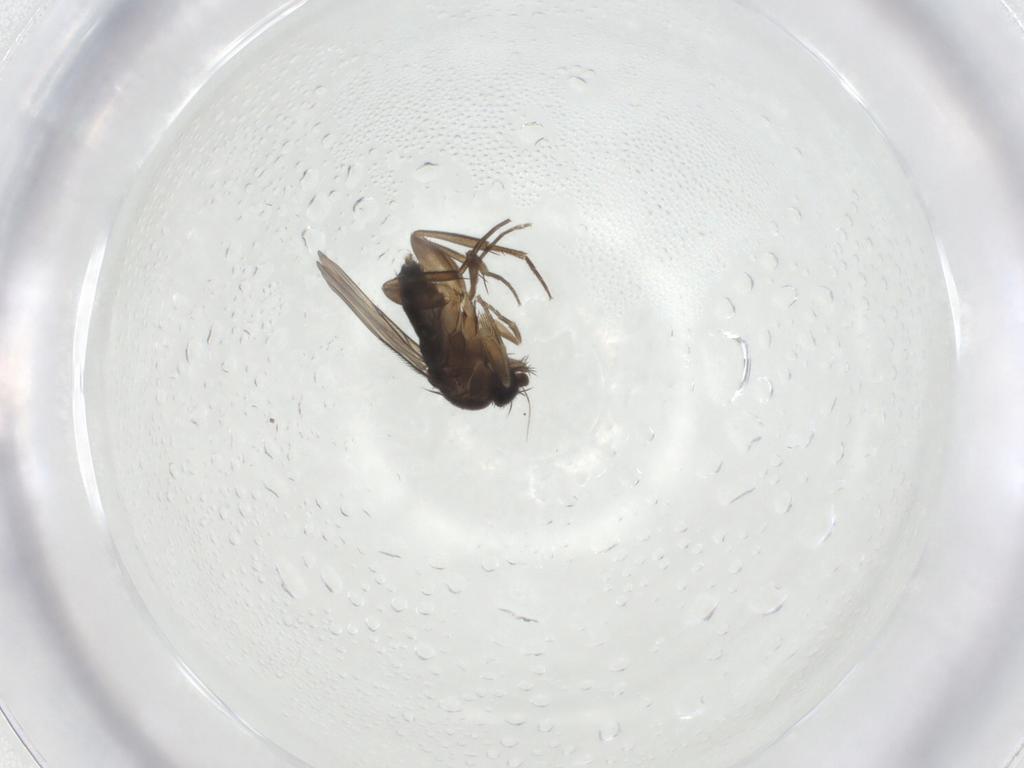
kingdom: Animalia
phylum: Arthropoda
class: Insecta
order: Diptera
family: Phoridae
